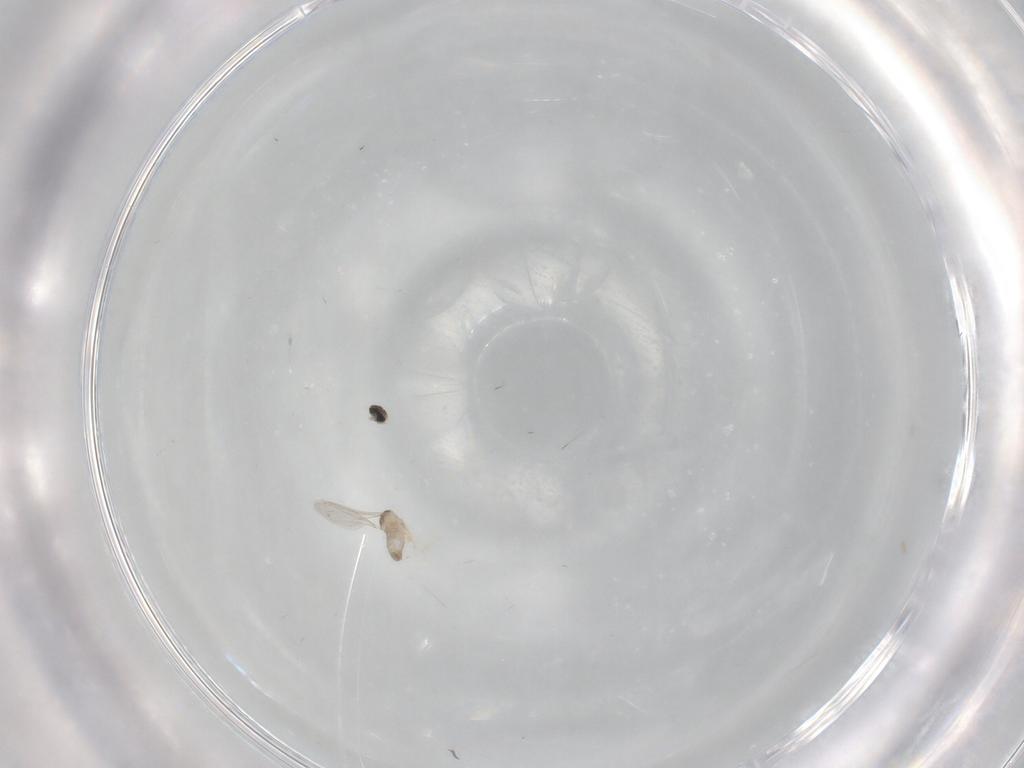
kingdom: Animalia
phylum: Arthropoda
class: Insecta
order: Diptera
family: Cecidomyiidae
